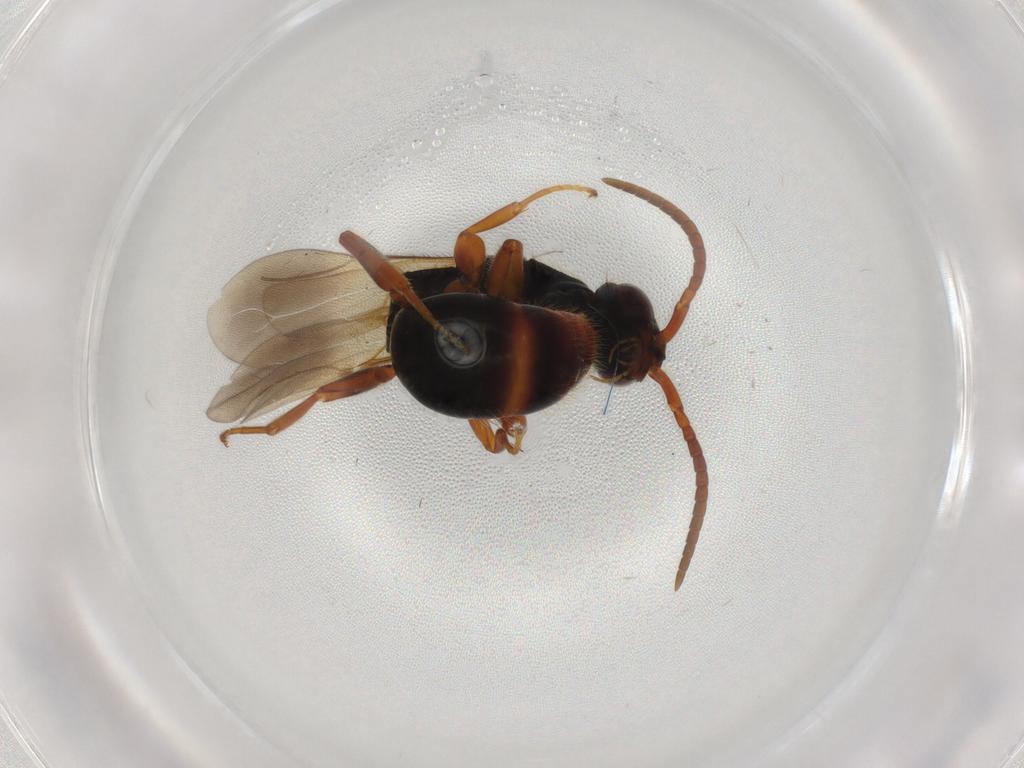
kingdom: Animalia
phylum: Arthropoda
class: Insecta
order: Hymenoptera
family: Bethylidae
